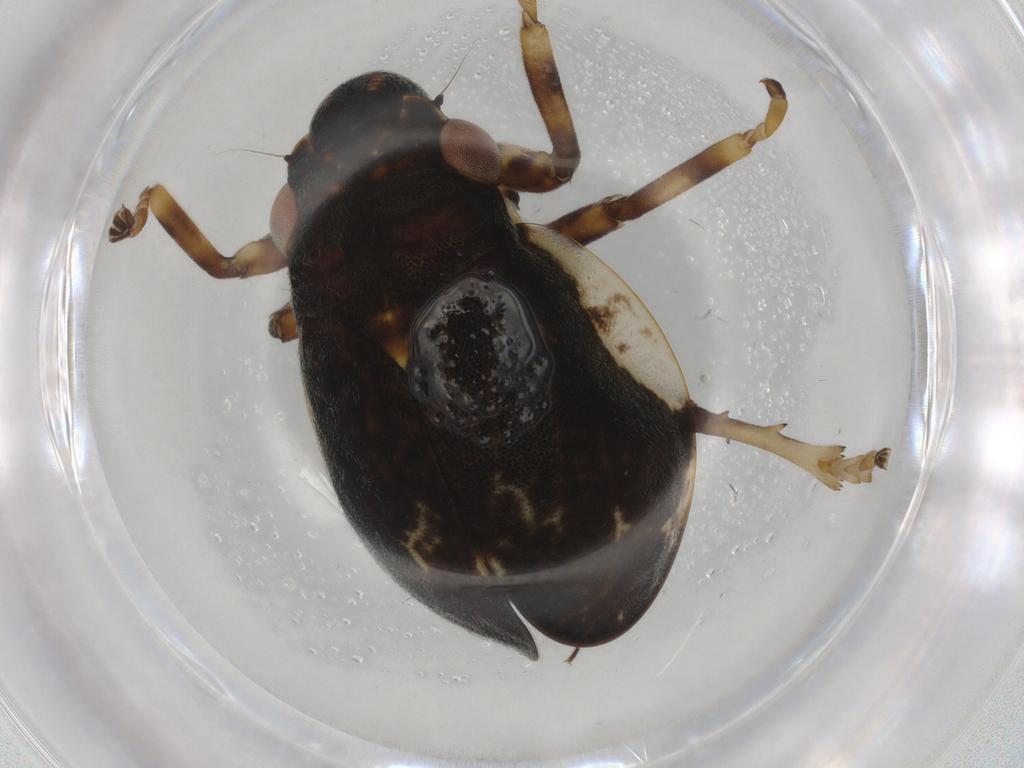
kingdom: Animalia
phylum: Arthropoda
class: Insecta
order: Hemiptera
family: Aphrophoridae
